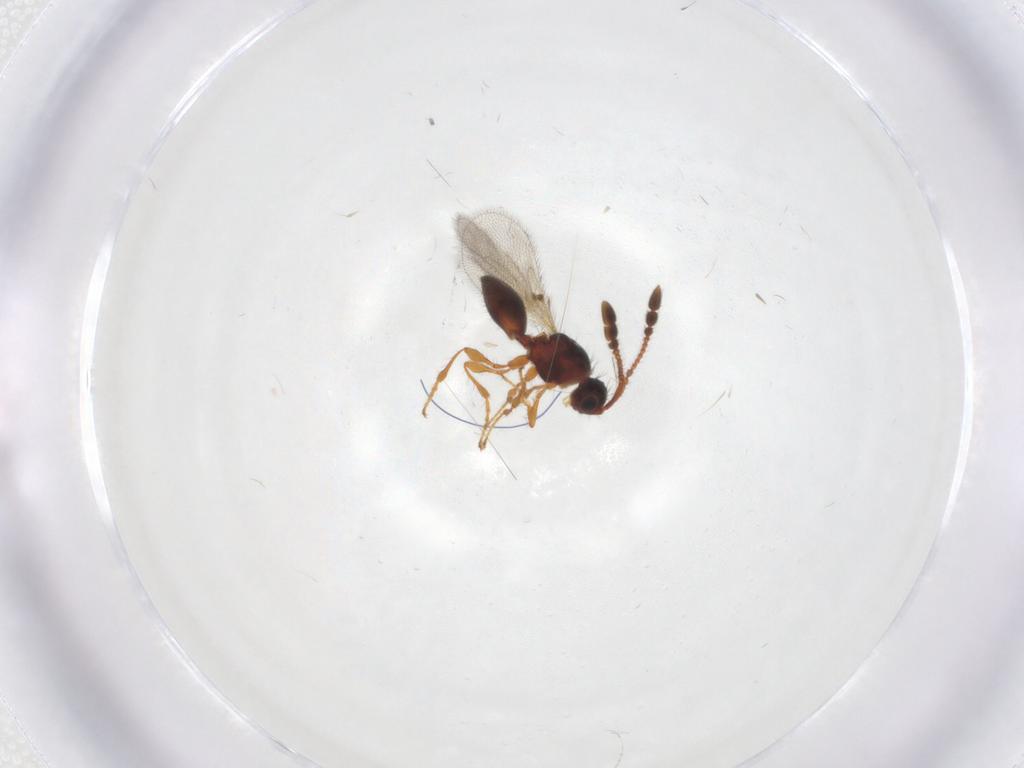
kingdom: Animalia
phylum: Arthropoda
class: Insecta
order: Hymenoptera
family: Diapriidae
